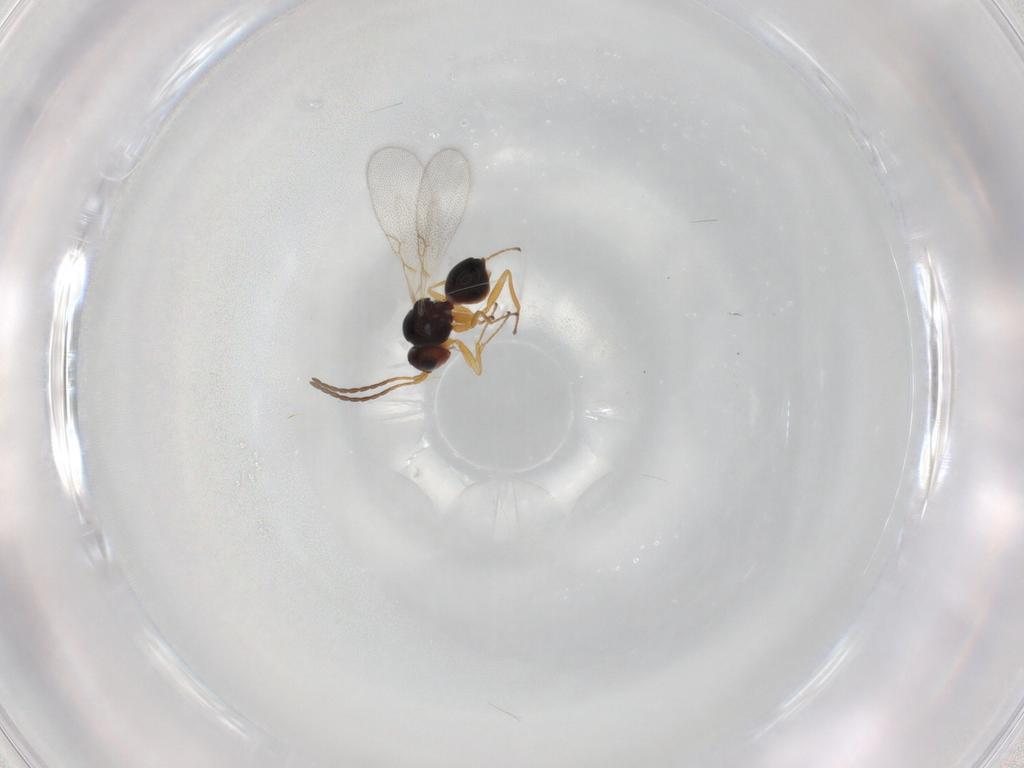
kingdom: Animalia
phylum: Arthropoda
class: Insecta
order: Hymenoptera
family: Figitidae
